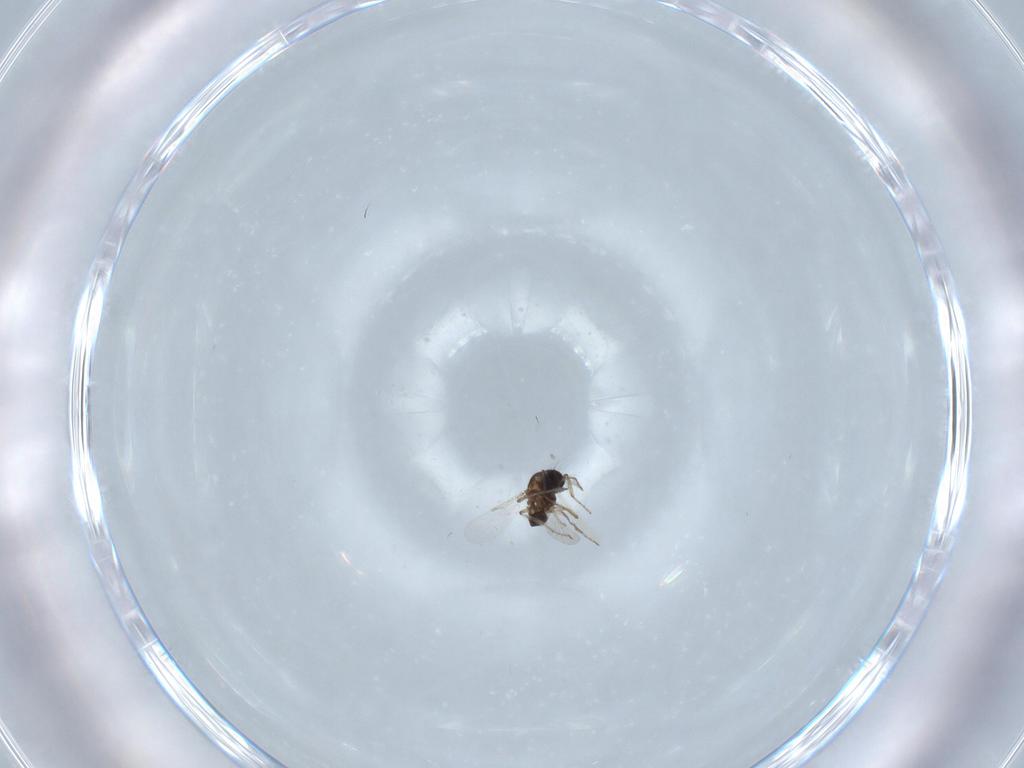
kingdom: Animalia
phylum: Arthropoda
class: Insecta
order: Diptera
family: Ceratopogonidae
